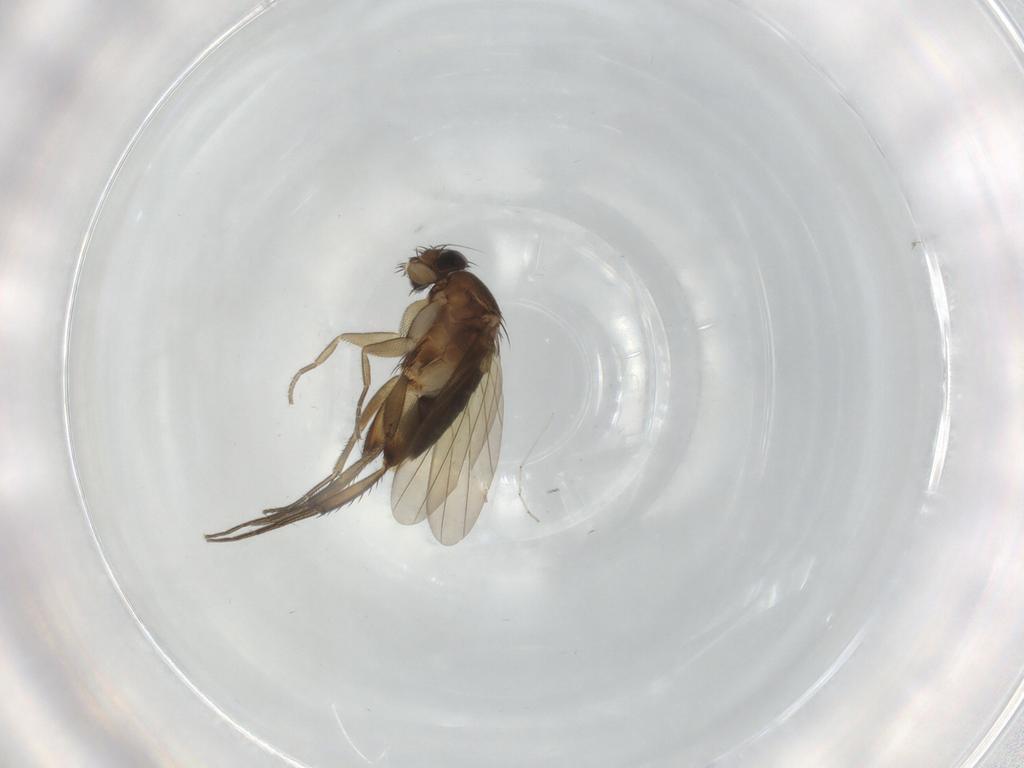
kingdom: Animalia
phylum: Arthropoda
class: Insecta
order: Diptera
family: Phoridae
